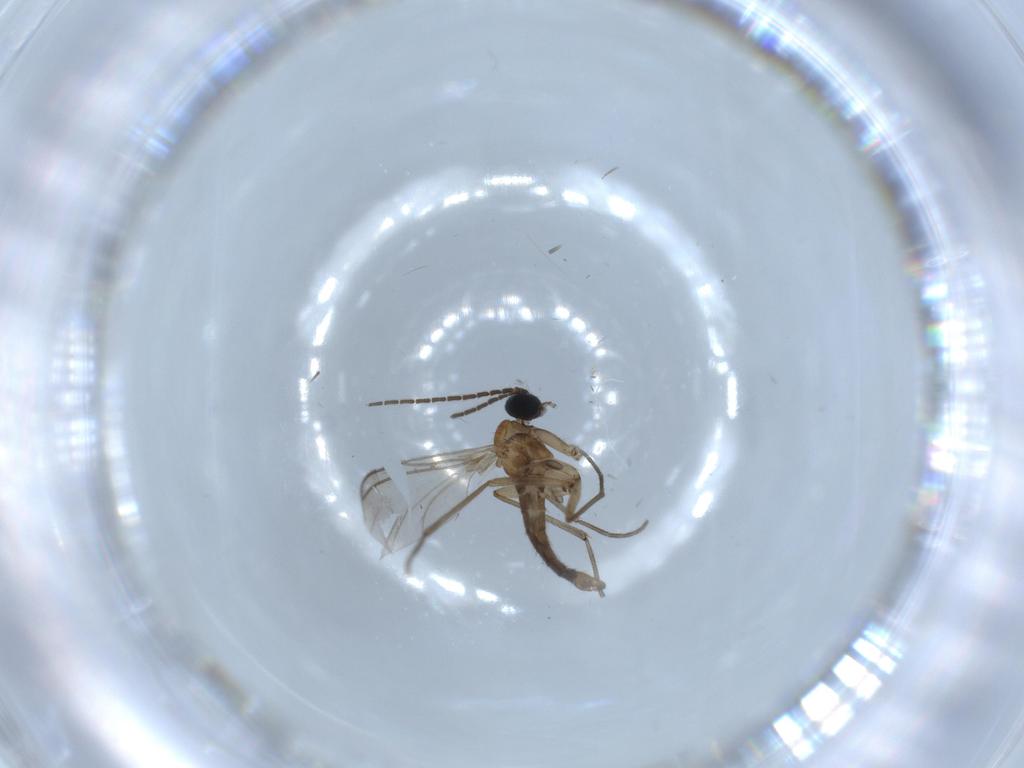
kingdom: Animalia
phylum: Arthropoda
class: Insecta
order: Diptera
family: Sciaridae
